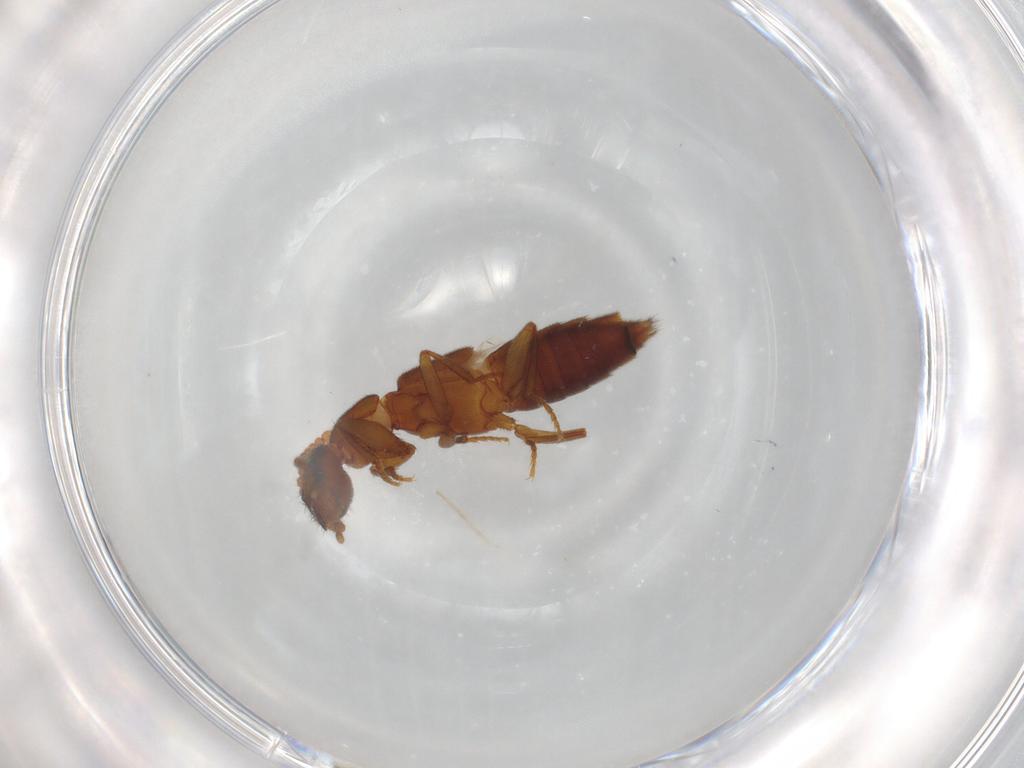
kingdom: Animalia
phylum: Arthropoda
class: Insecta
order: Coleoptera
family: Staphylinidae
